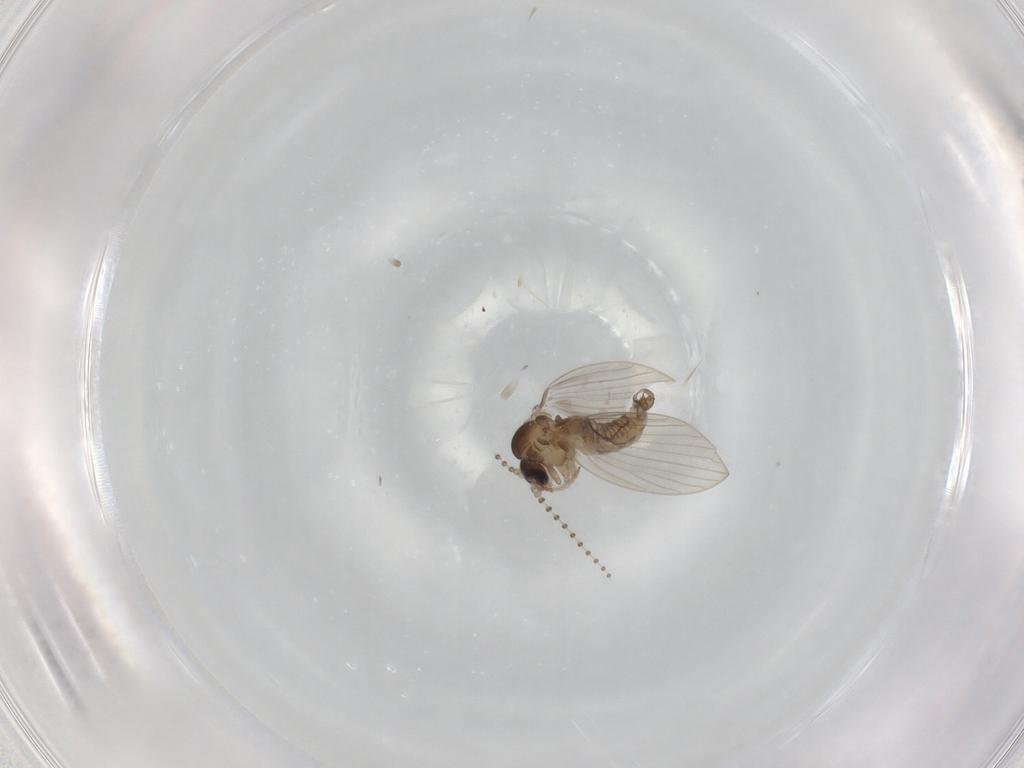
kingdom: Animalia
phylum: Arthropoda
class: Insecta
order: Diptera
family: Psychodidae
